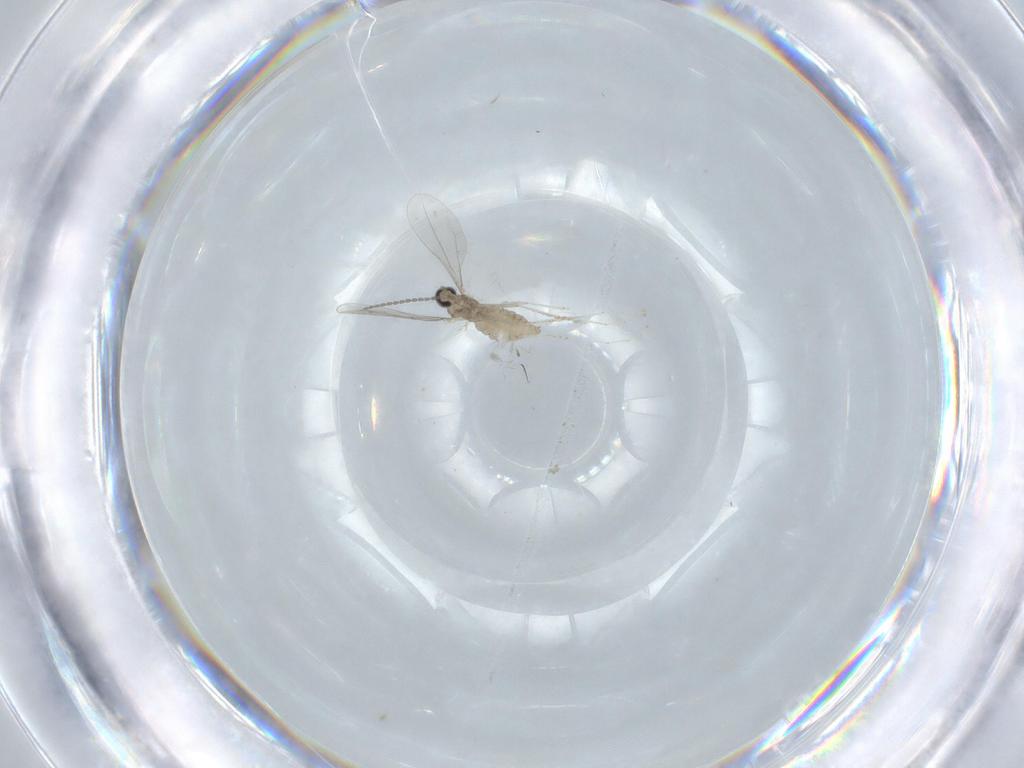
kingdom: Animalia
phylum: Arthropoda
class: Insecta
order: Diptera
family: Cecidomyiidae
